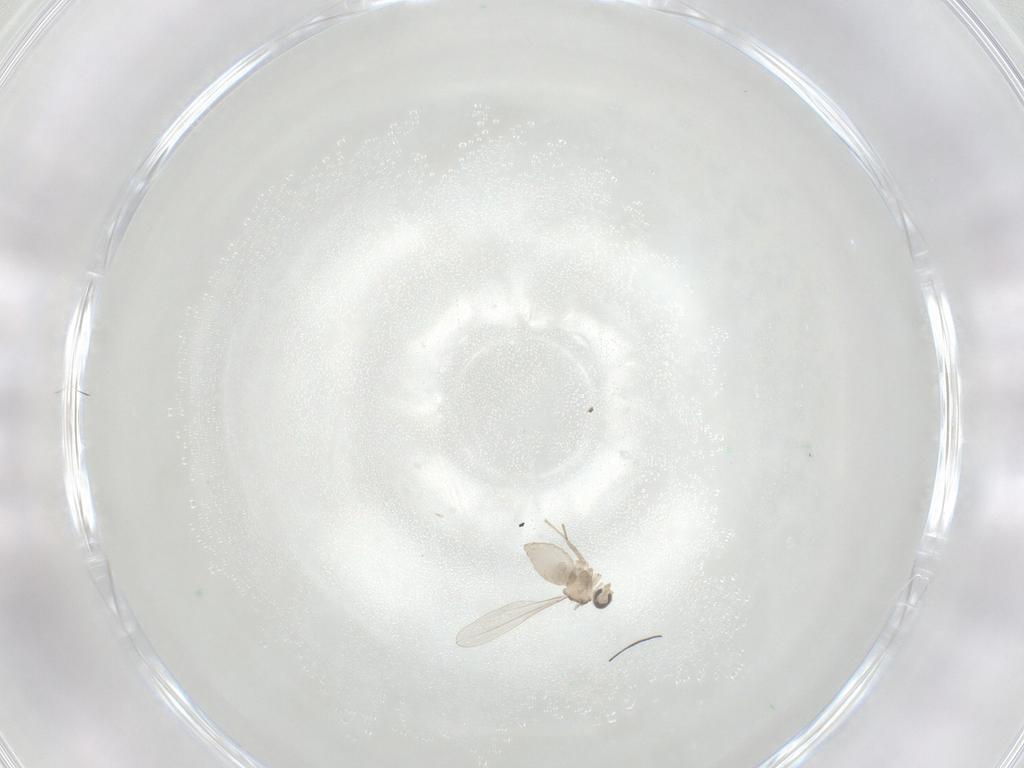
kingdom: Animalia
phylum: Arthropoda
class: Insecta
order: Diptera
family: Cecidomyiidae
